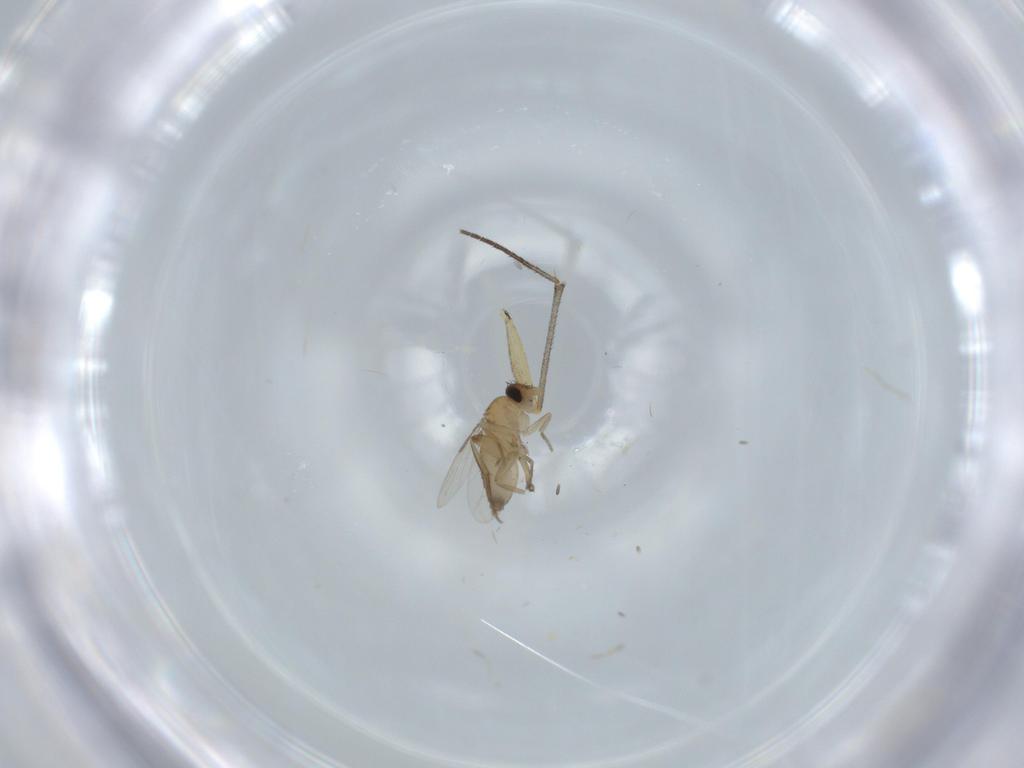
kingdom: Animalia
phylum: Arthropoda
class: Insecta
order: Diptera
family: Phoridae
